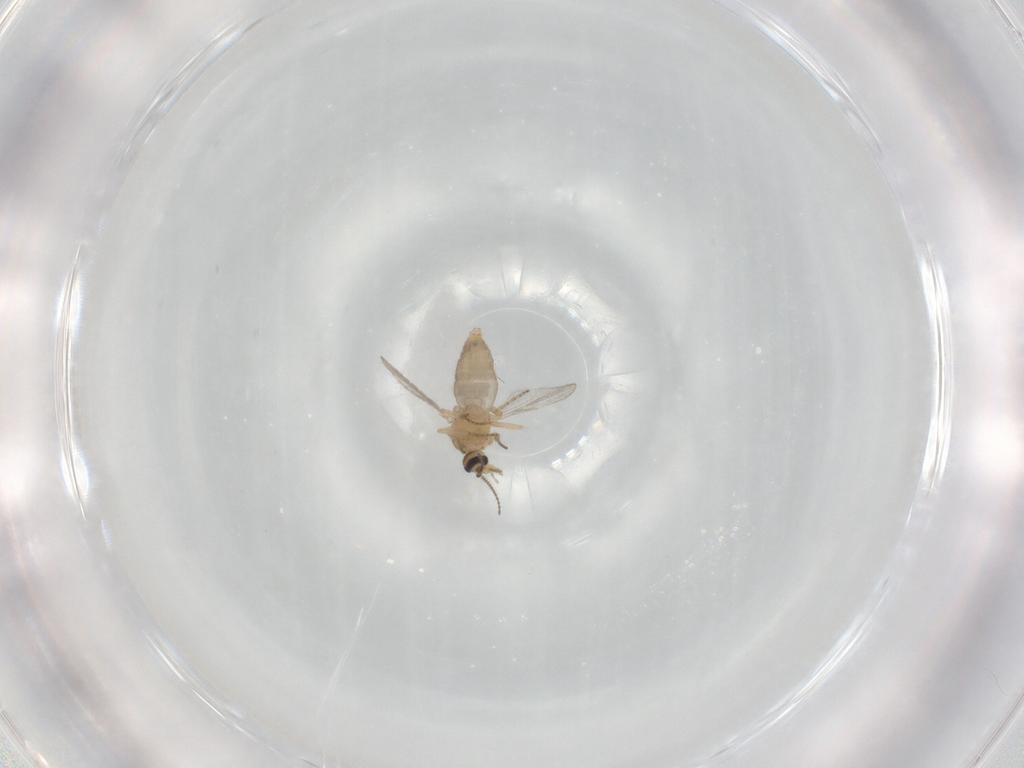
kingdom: Animalia
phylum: Arthropoda
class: Insecta
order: Diptera
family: Ceratopogonidae
